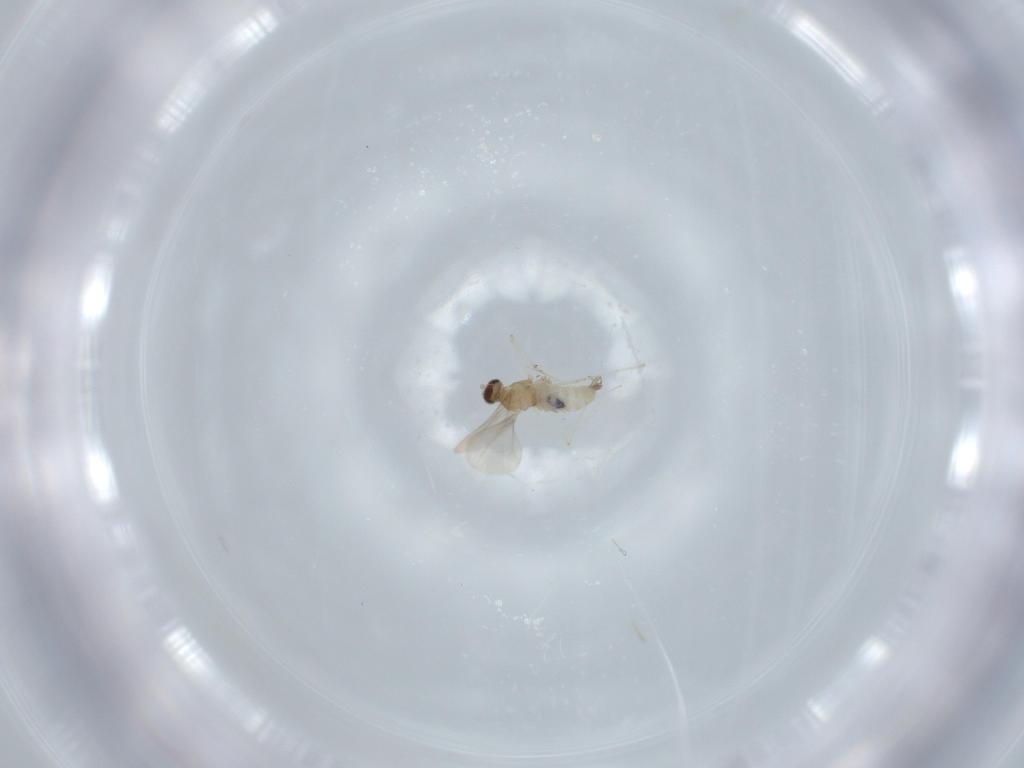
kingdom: Animalia
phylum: Arthropoda
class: Insecta
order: Diptera
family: Cecidomyiidae
